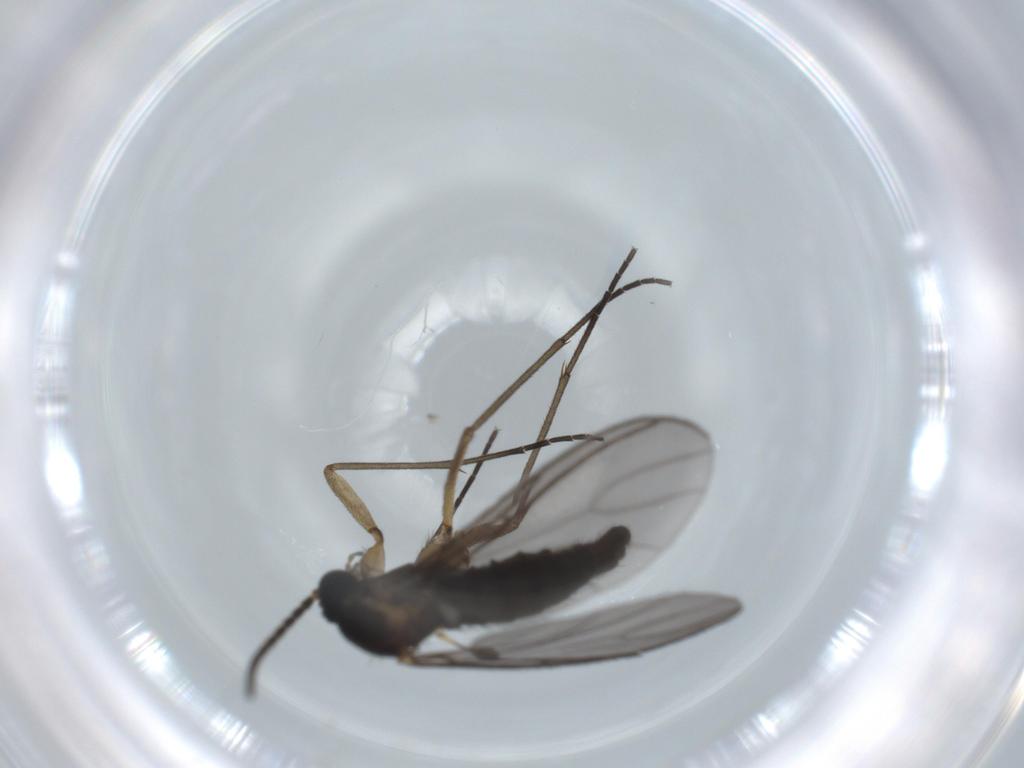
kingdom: Animalia
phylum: Arthropoda
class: Insecta
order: Diptera
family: Sciaridae
